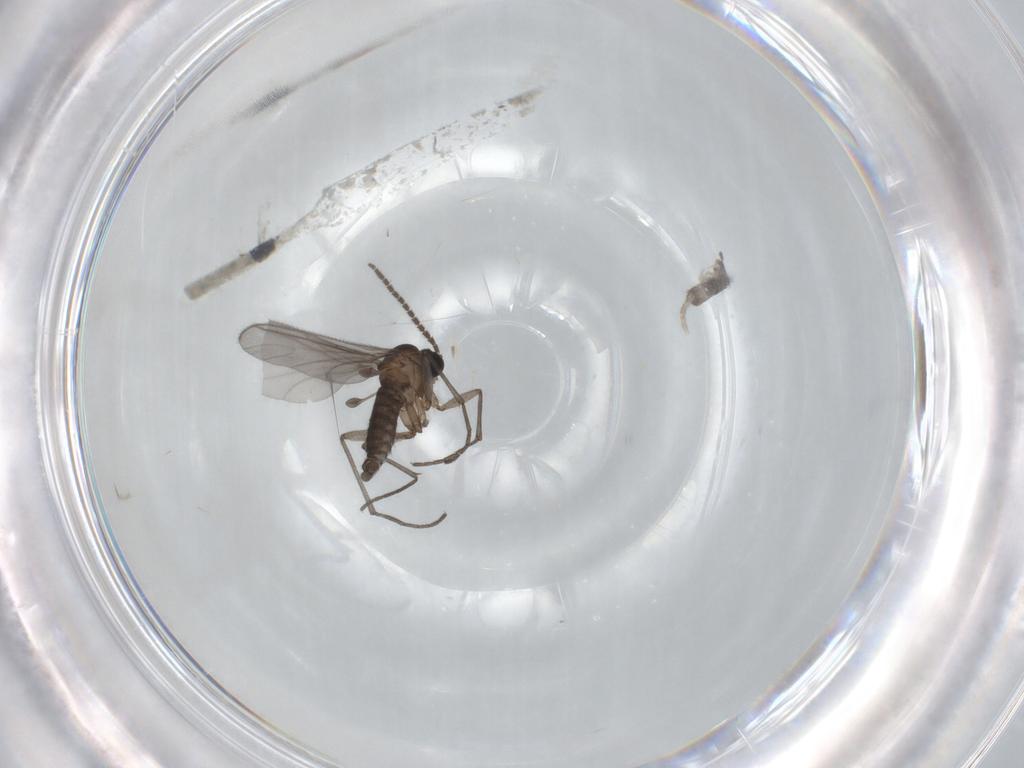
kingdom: Animalia
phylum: Arthropoda
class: Insecta
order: Diptera
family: Sciaridae
